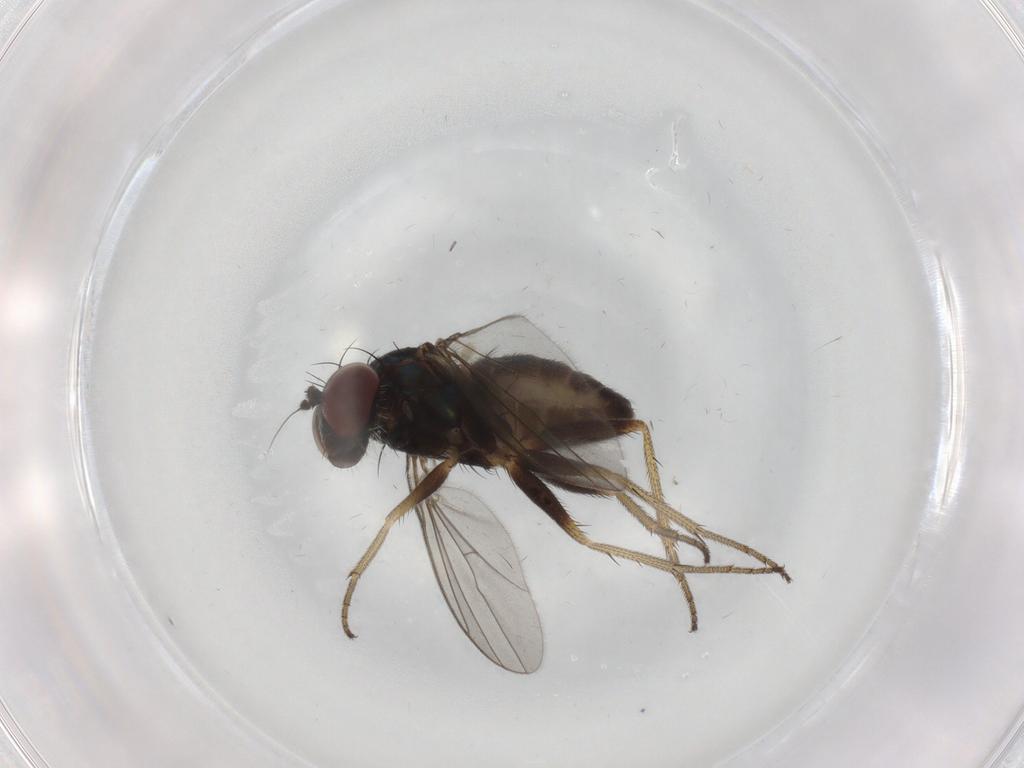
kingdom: Animalia
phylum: Arthropoda
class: Insecta
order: Diptera
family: Dolichopodidae
